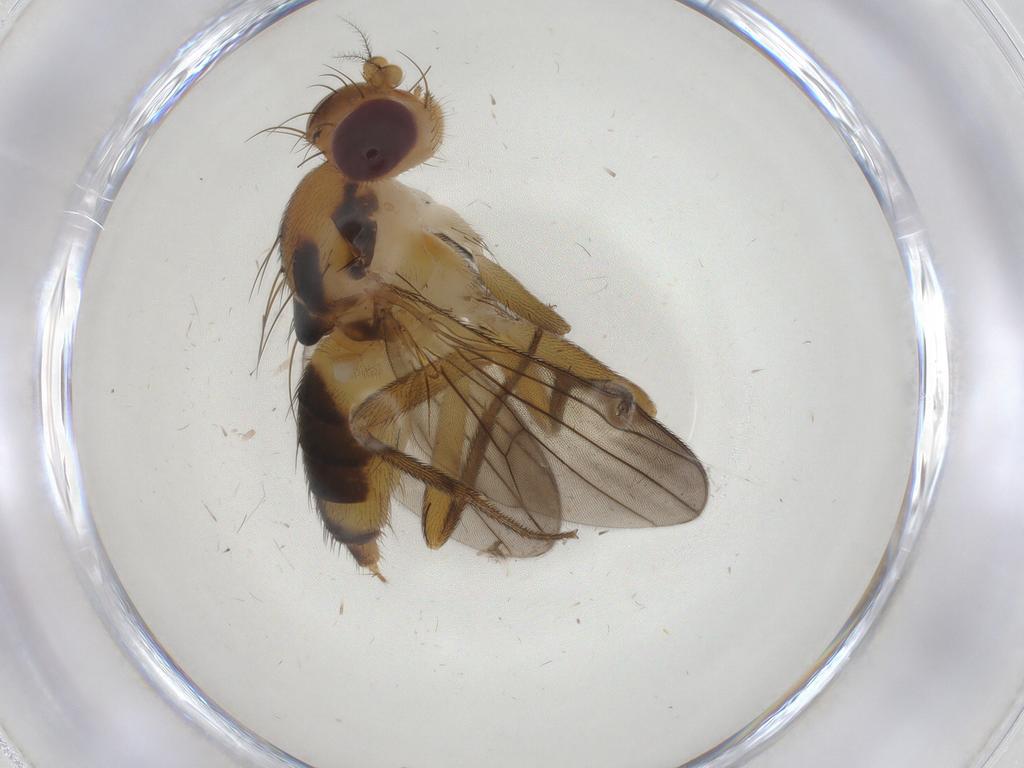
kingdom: Animalia
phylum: Arthropoda
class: Insecta
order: Diptera
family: Clusiidae
